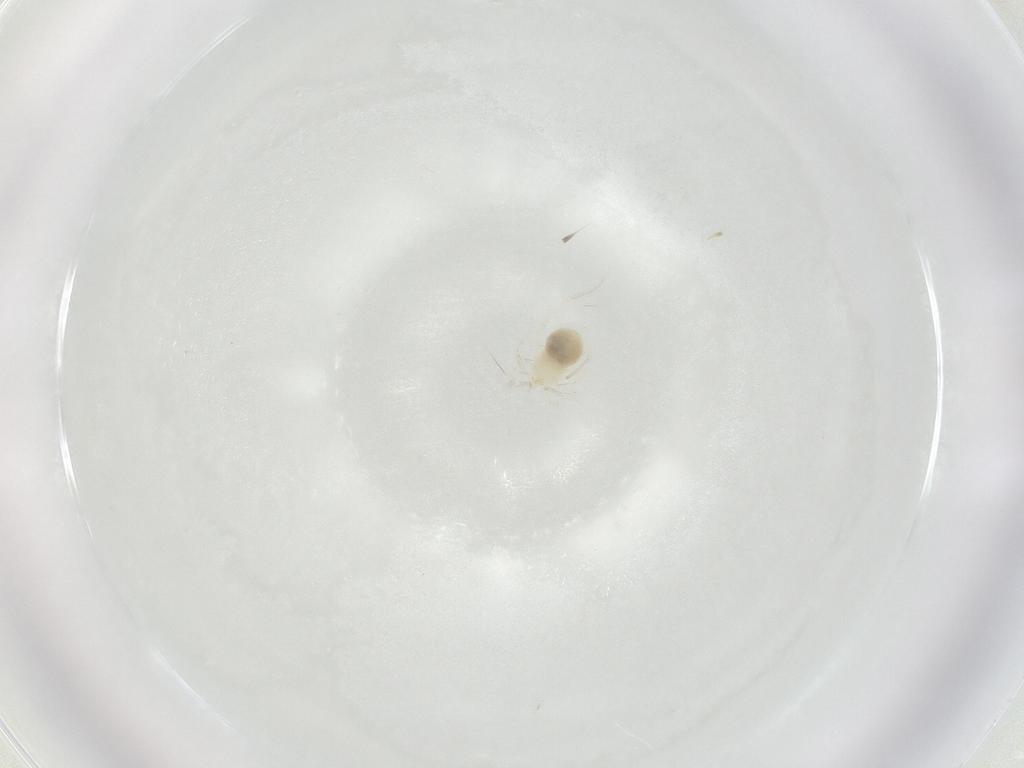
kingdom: Animalia
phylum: Arthropoda
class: Arachnida
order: Trombidiformes
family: Anystidae
